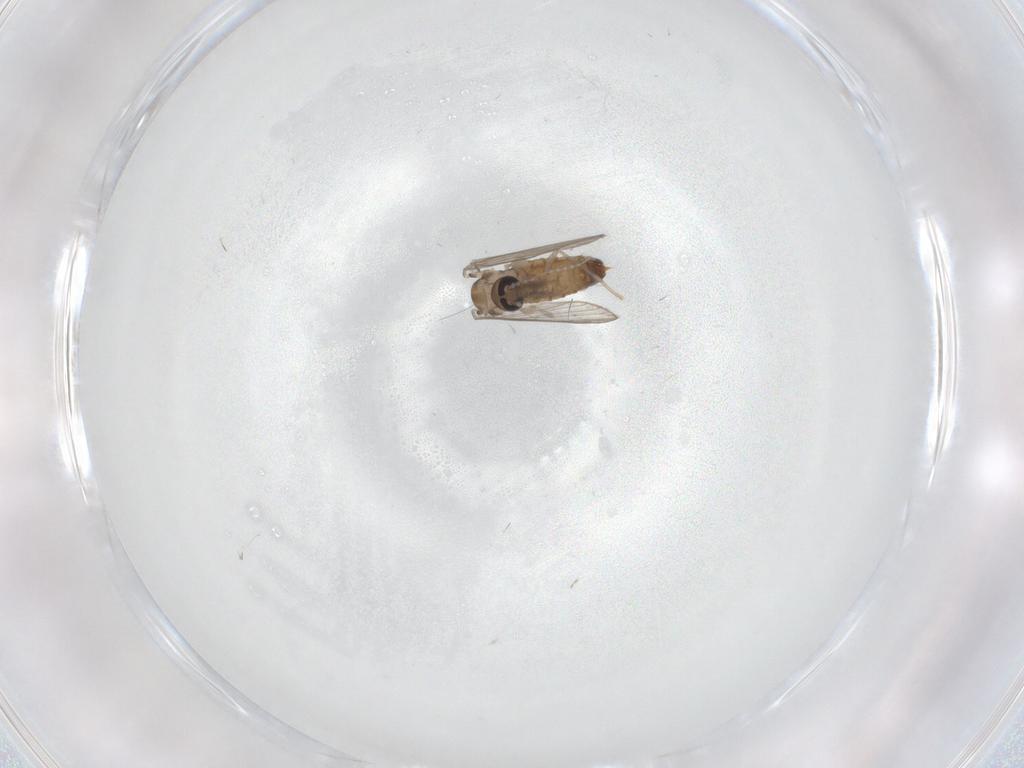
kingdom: Animalia
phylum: Arthropoda
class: Insecta
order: Diptera
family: Psychodidae
